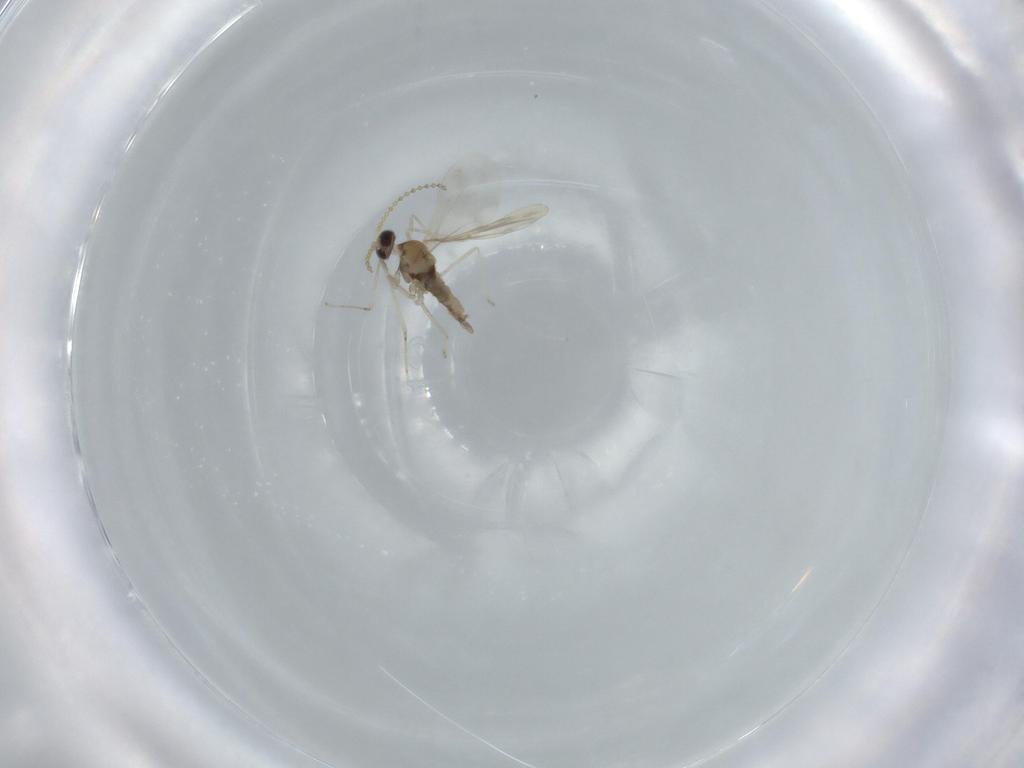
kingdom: Animalia
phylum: Arthropoda
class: Insecta
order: Diptera
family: Cecidomyiidae
